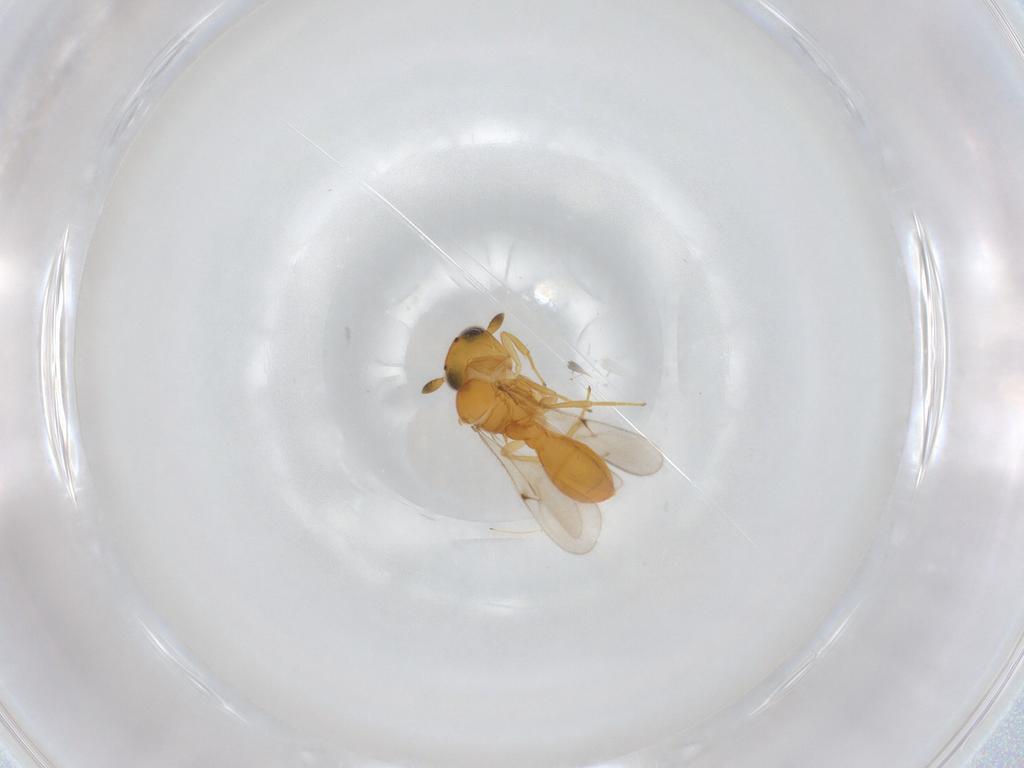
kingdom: Animalia
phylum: Arthropoda
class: Insecta
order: Hymenoptera
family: Scelionidae
